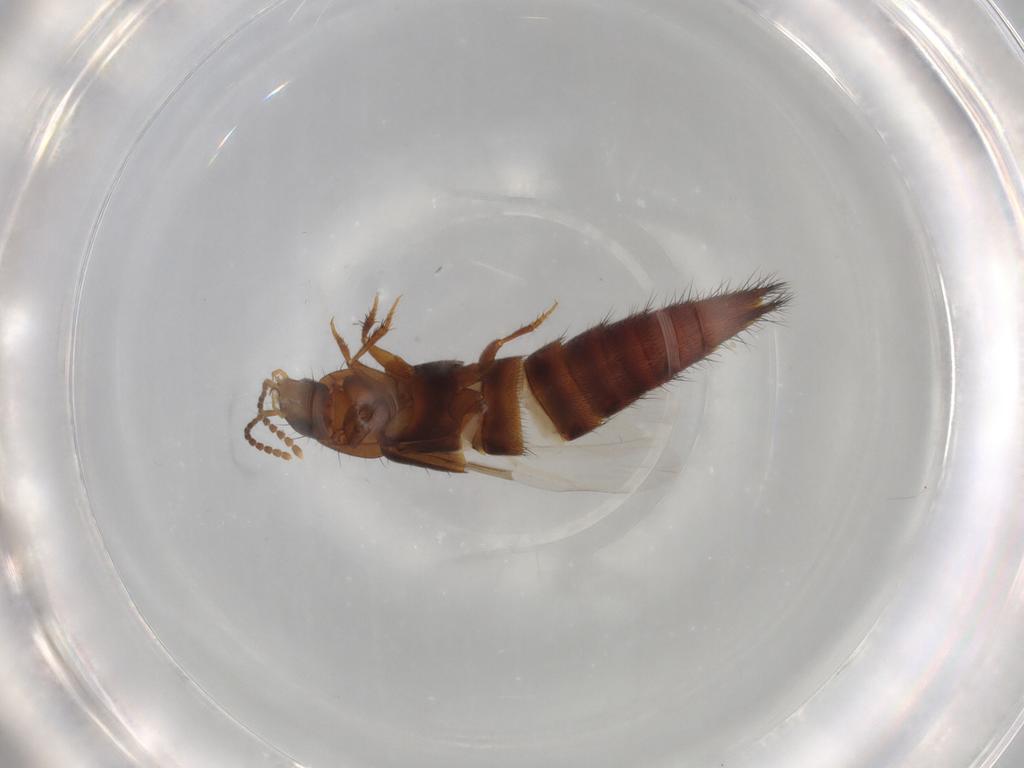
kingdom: Animalia
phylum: Arthropoda
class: Insecta
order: Coleoptera
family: Staphylinidae
